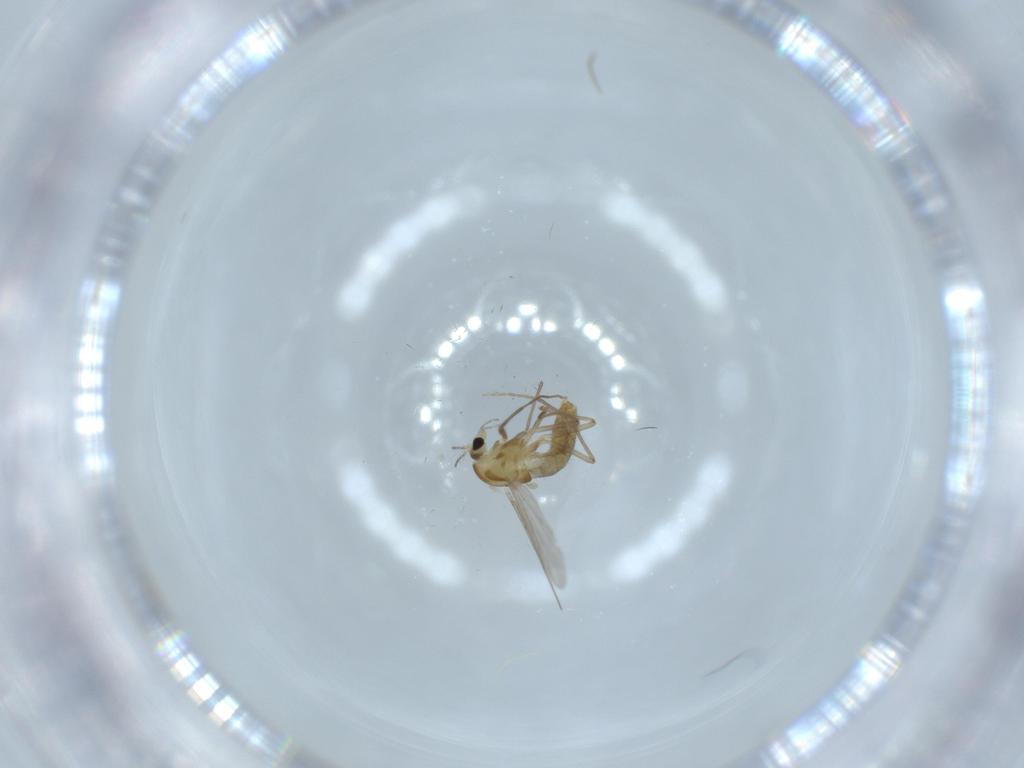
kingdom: Animalia
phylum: Arthropoda
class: Insecta
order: Diptera
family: Chironomidae
